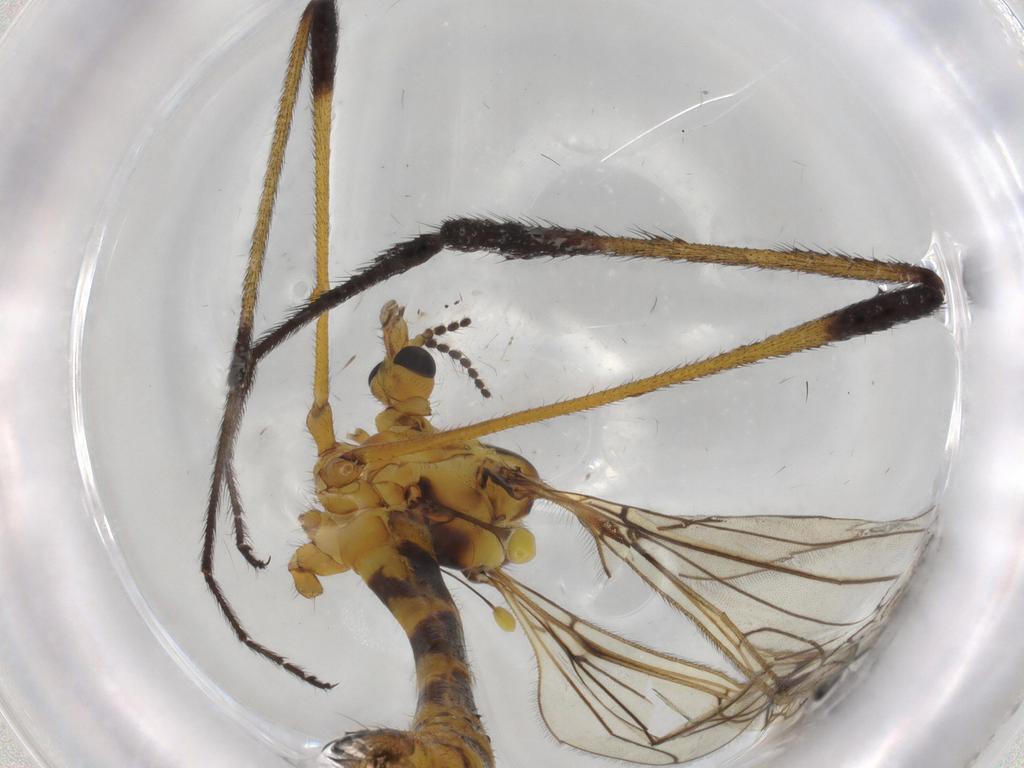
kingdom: Animalia
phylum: Arthropoda
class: Insecta
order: Diptera
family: Limoniidae
